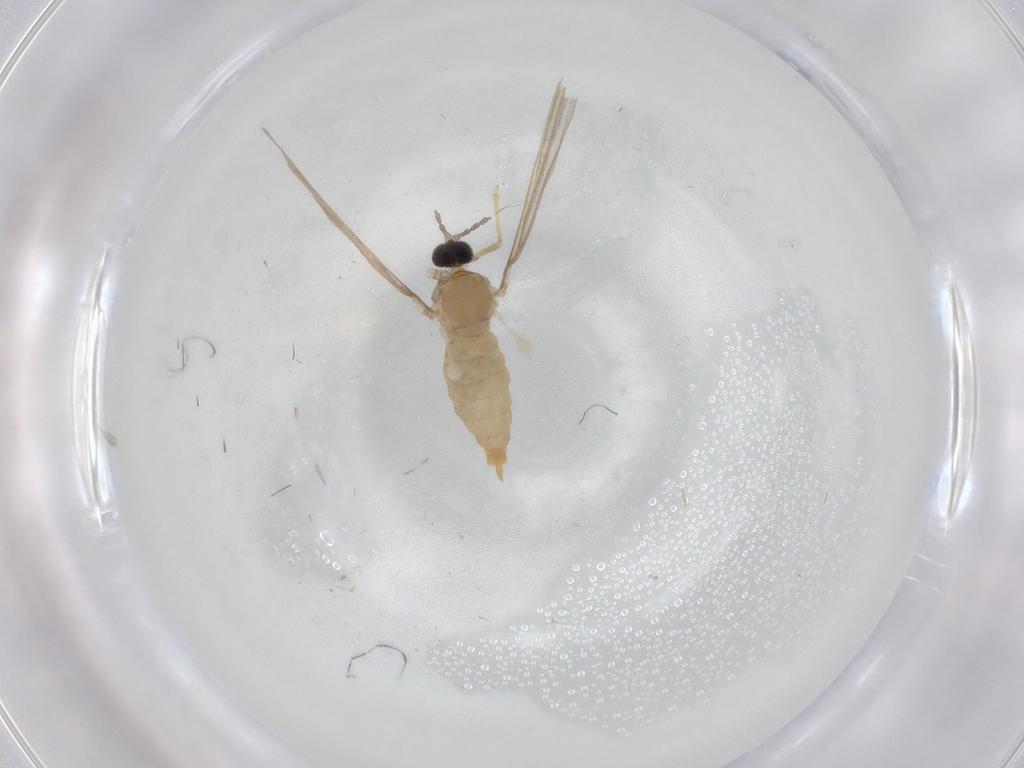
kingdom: Animalia
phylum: Arthropoda
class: Insecta
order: Diptera
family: Cecidomyiidae
